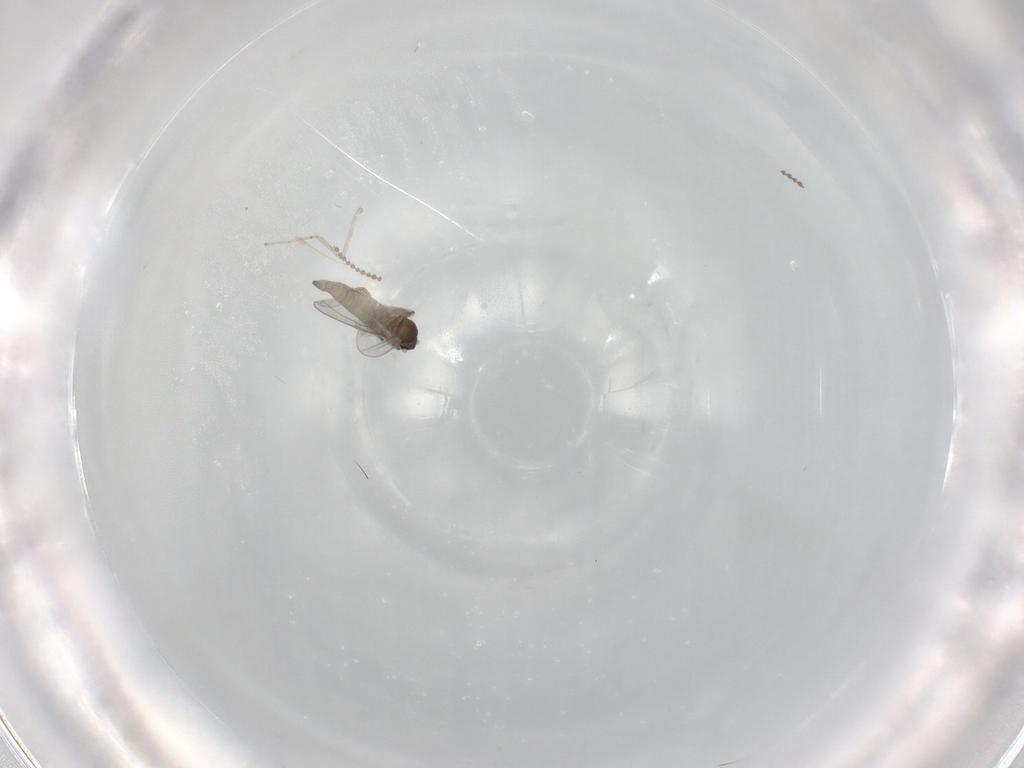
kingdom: Animalia
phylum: Arthropoda
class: Insecta
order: Diptera
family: Cecidomyiidae
